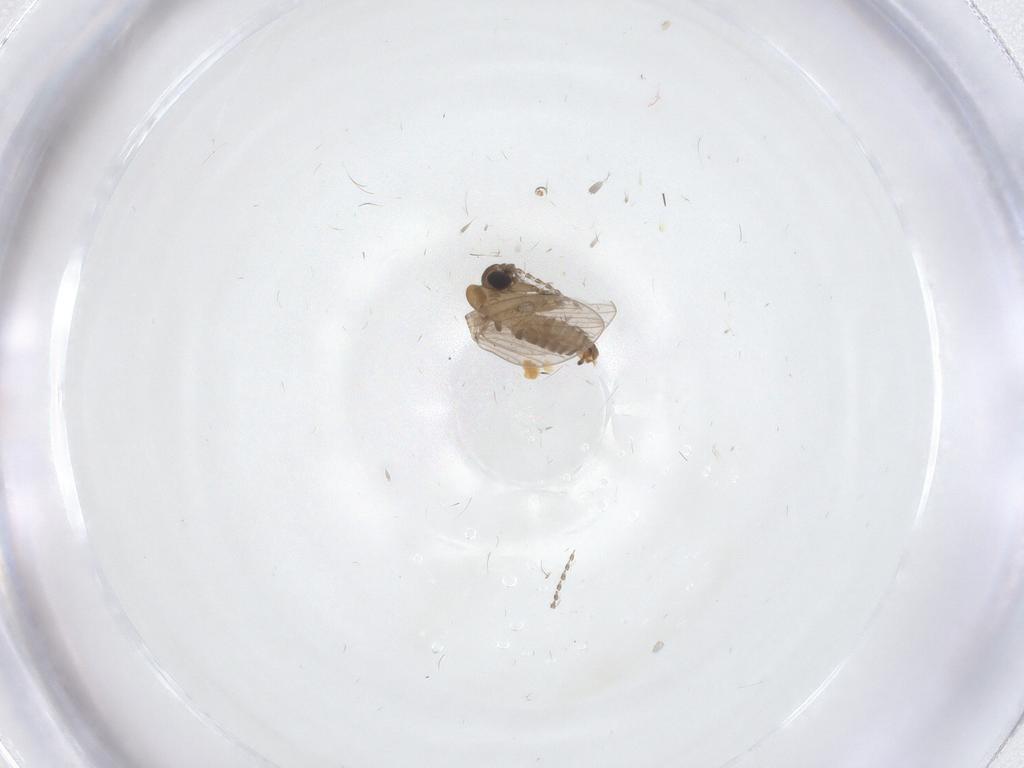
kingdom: Animalia
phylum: Arthropoda
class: Insecta
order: Diptera
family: Psychodidae
